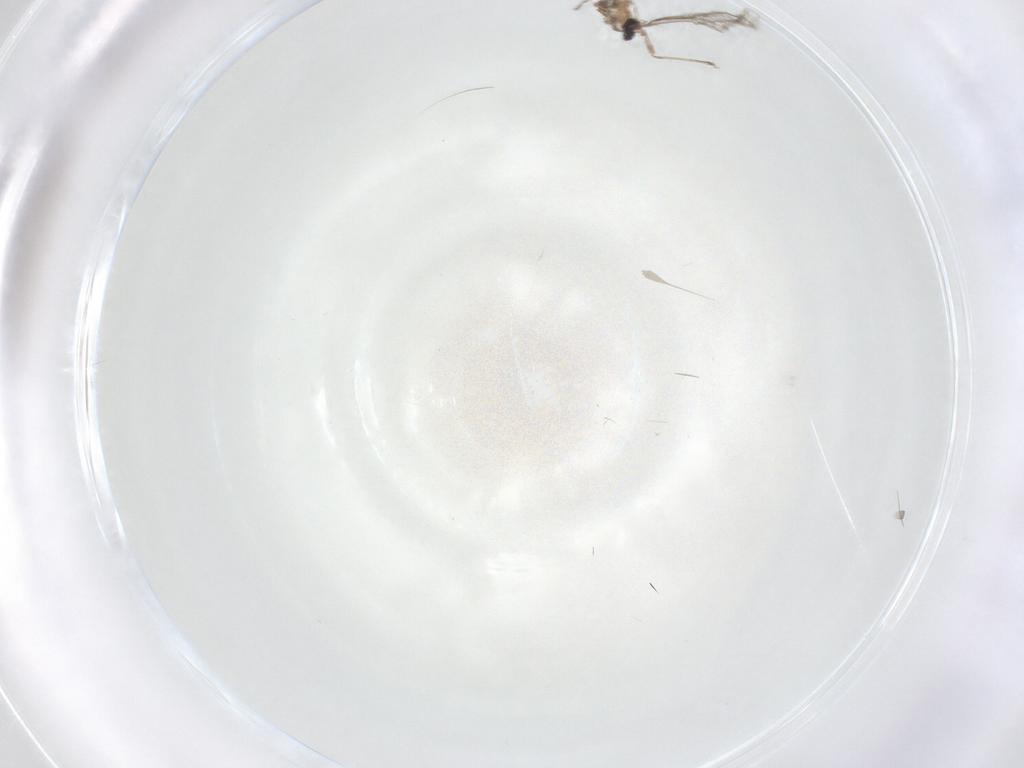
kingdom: Animalia
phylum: Arthropoda
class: Insecta
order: Diptera
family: Cecidomyiidae
